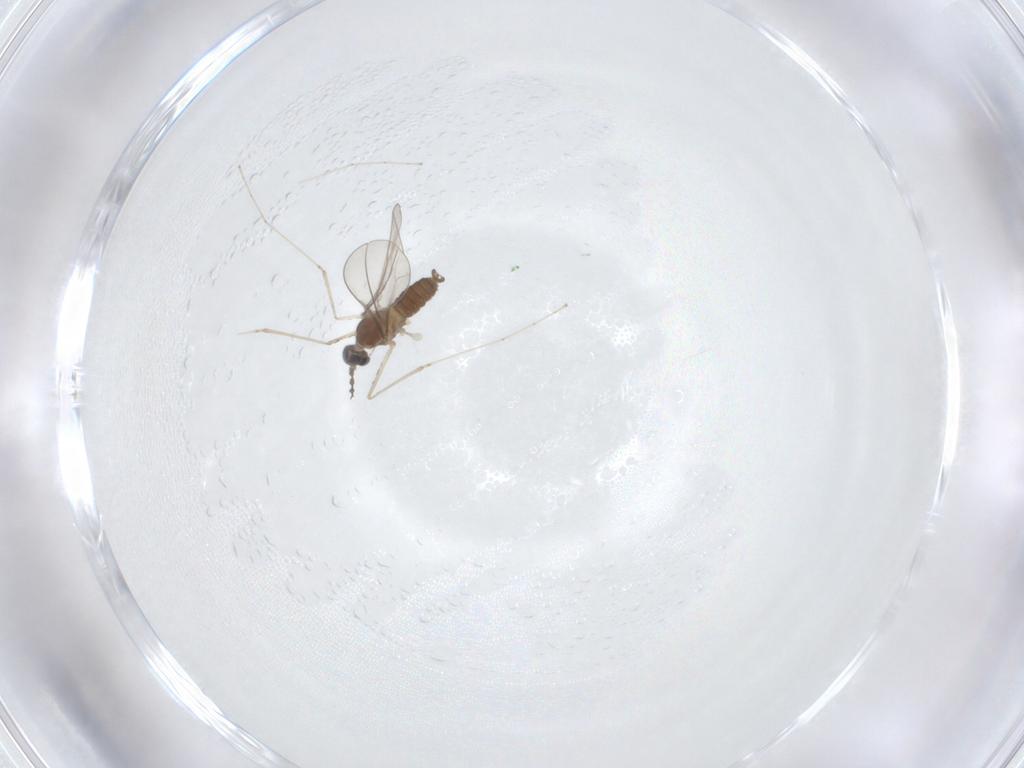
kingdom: Animalia
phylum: Arthropoda
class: Insecta
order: Diptera
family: Cecidomyiidae
